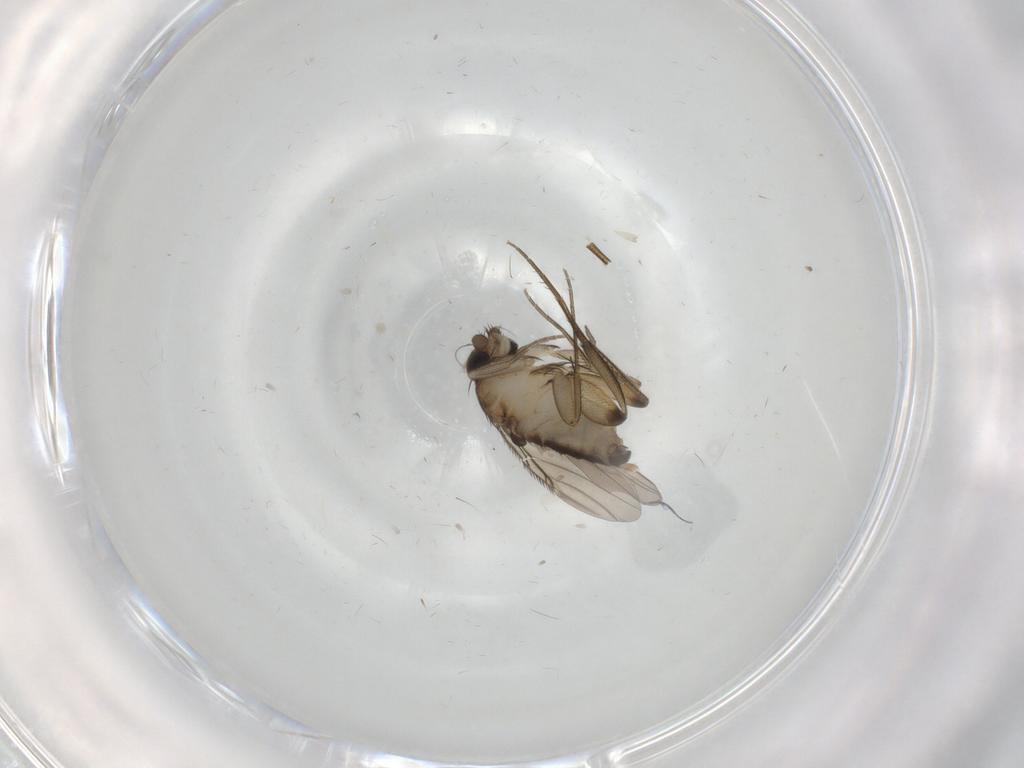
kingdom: Animalia
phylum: Arthropoda
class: Insecta
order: Diptera
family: Phoridae
